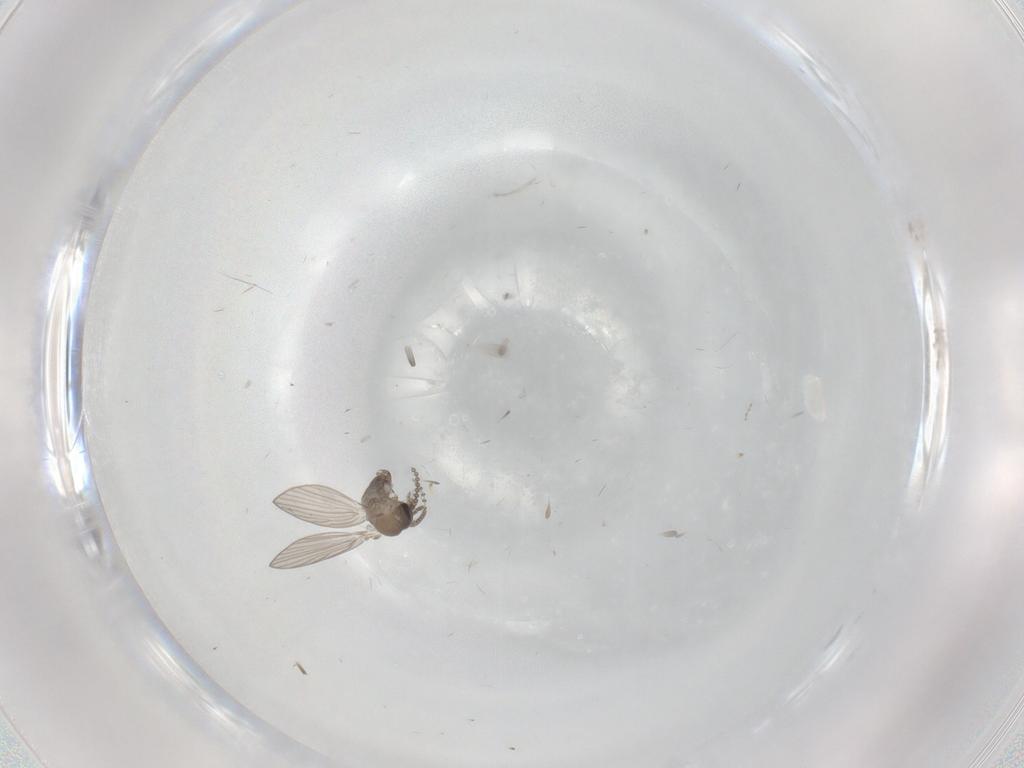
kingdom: Animalia
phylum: Arthropoda
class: Insecta
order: Diptera
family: Psychodidae
